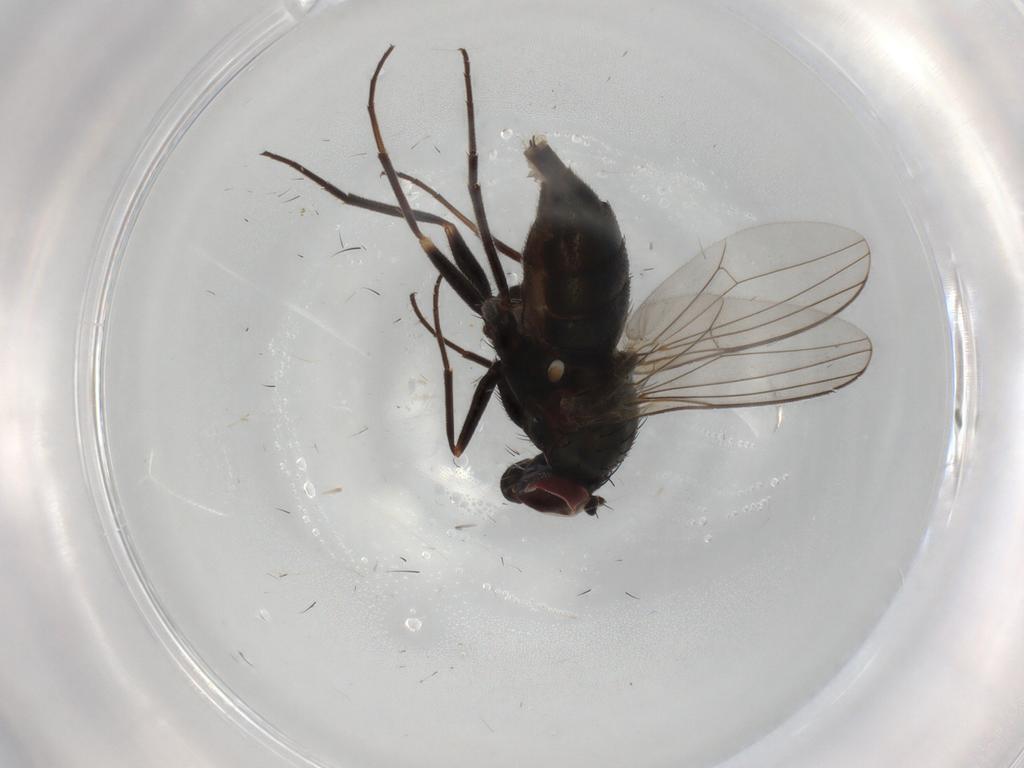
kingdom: Animalia
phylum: Arthropoda
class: Insecta
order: Diptera
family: Dolichopodidae
